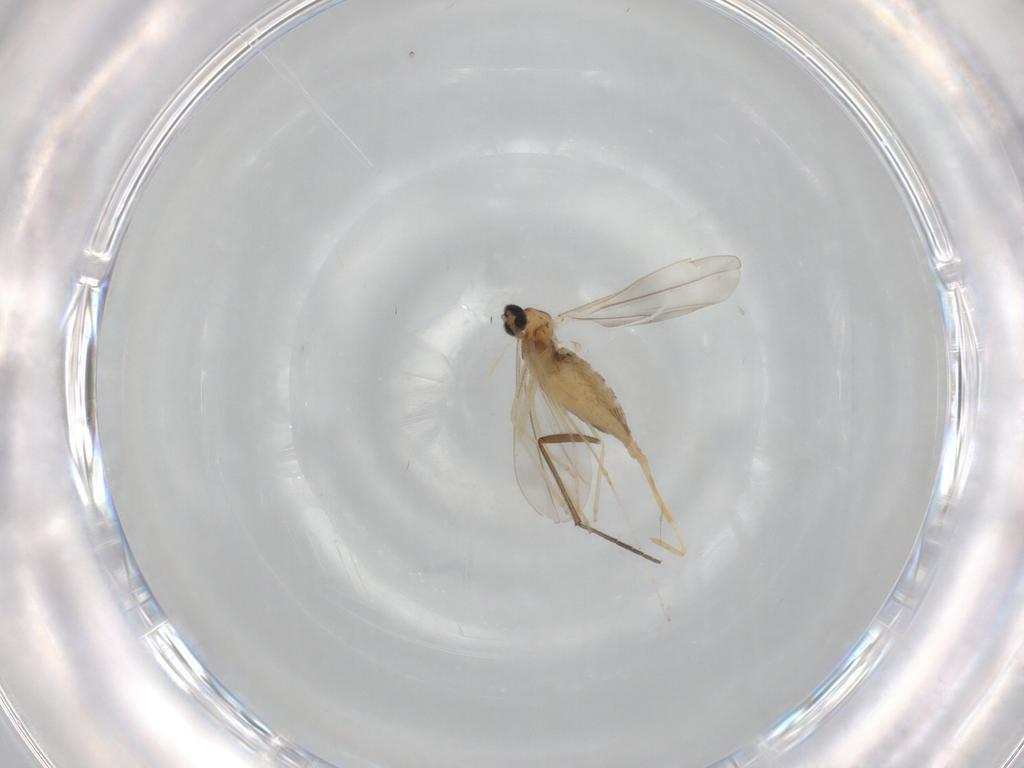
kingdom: Animalia
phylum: Arthropoda
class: Insecta
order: Diptera
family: Cecidomyiidae
